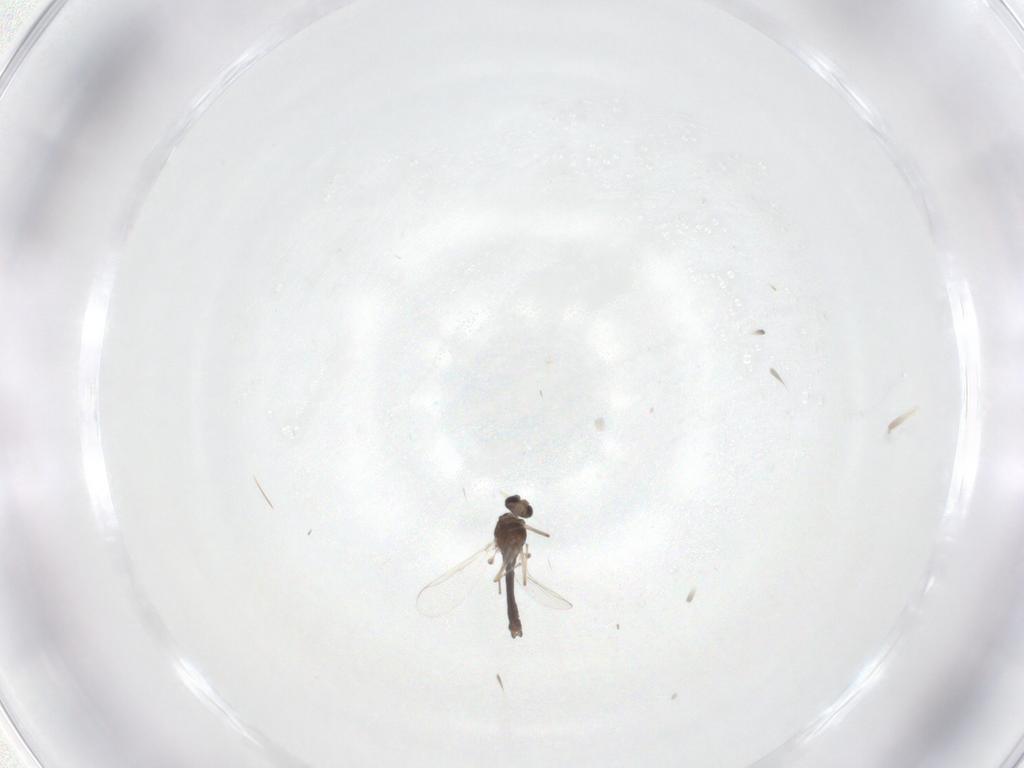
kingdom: Animalia
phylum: Arthropoda
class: Insecta
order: Diptera
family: Chironomidae
